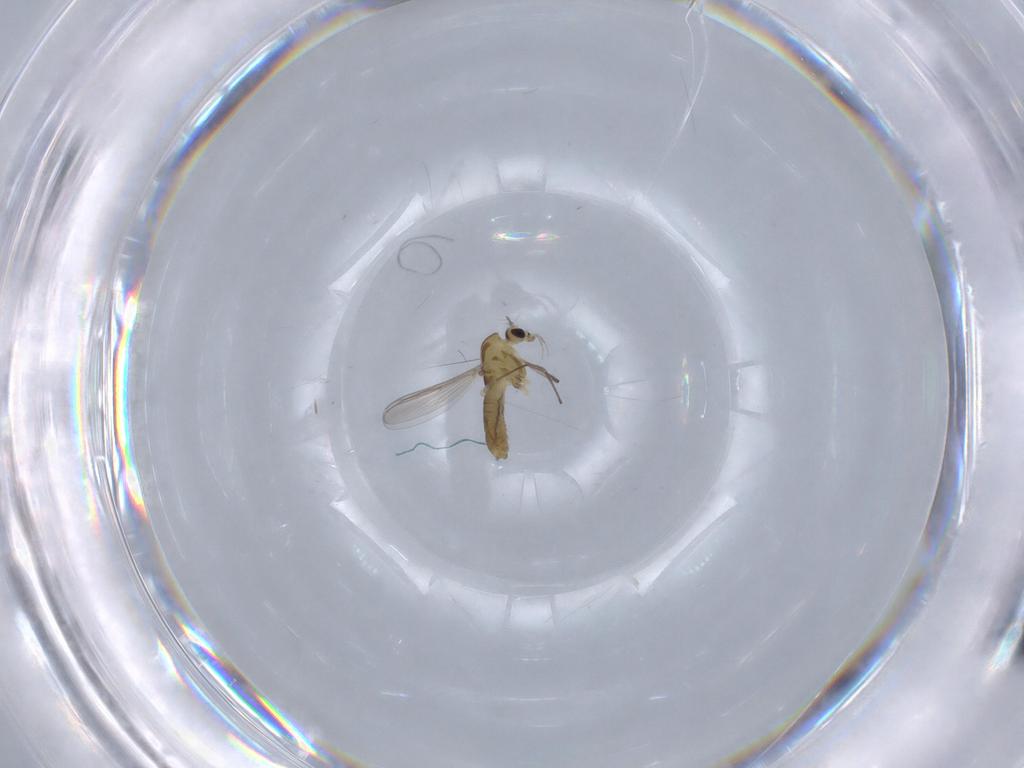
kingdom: Animalia
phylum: Arthropoda
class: Insecta
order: Diptera
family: Chironomidae
